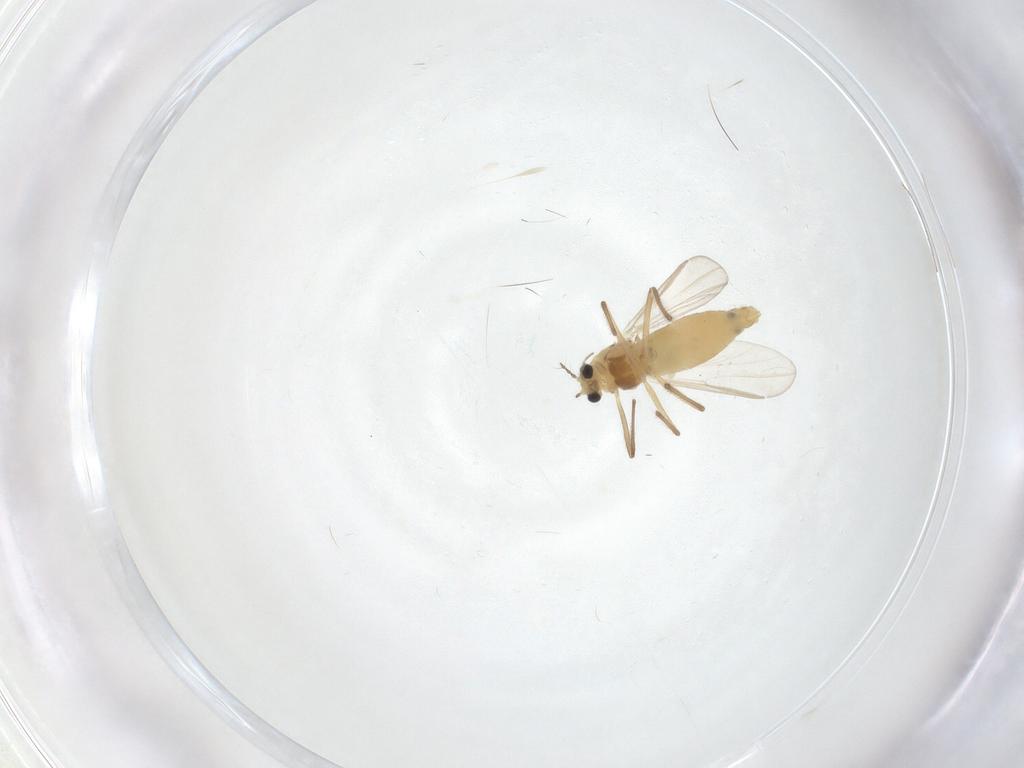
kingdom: Animalia
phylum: Arthropoda
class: Insecta
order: Diptera
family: Chironomidae
